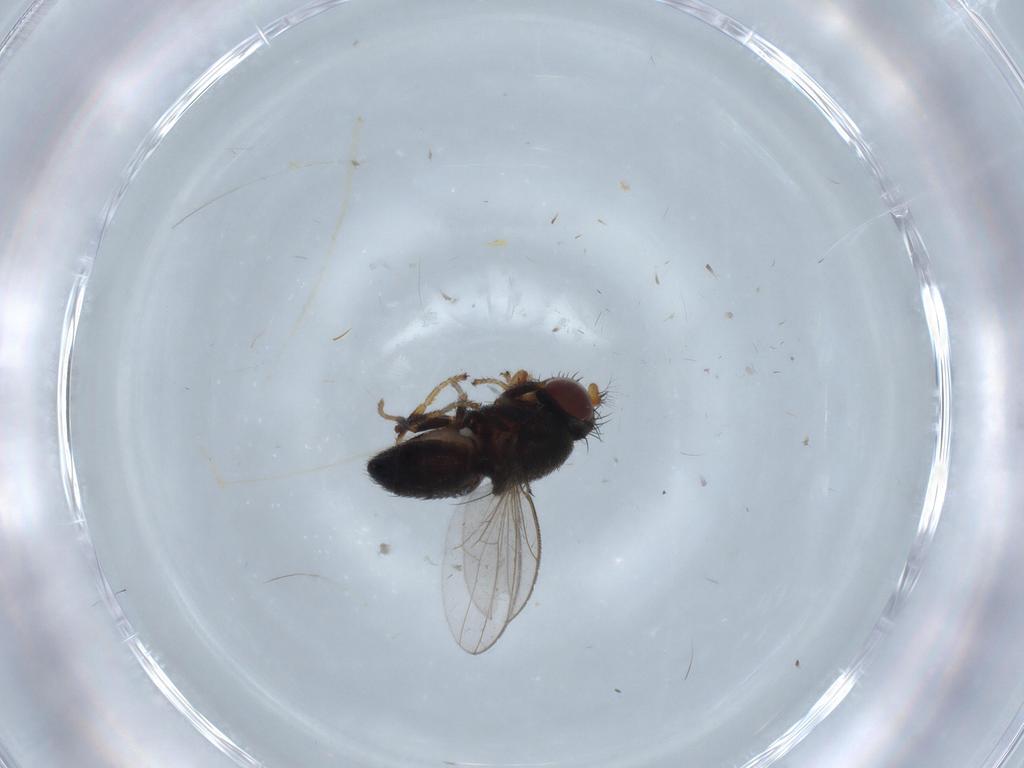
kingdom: Animalia
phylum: Arthropoda
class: Insecta
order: Diptera
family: Ephydridae
